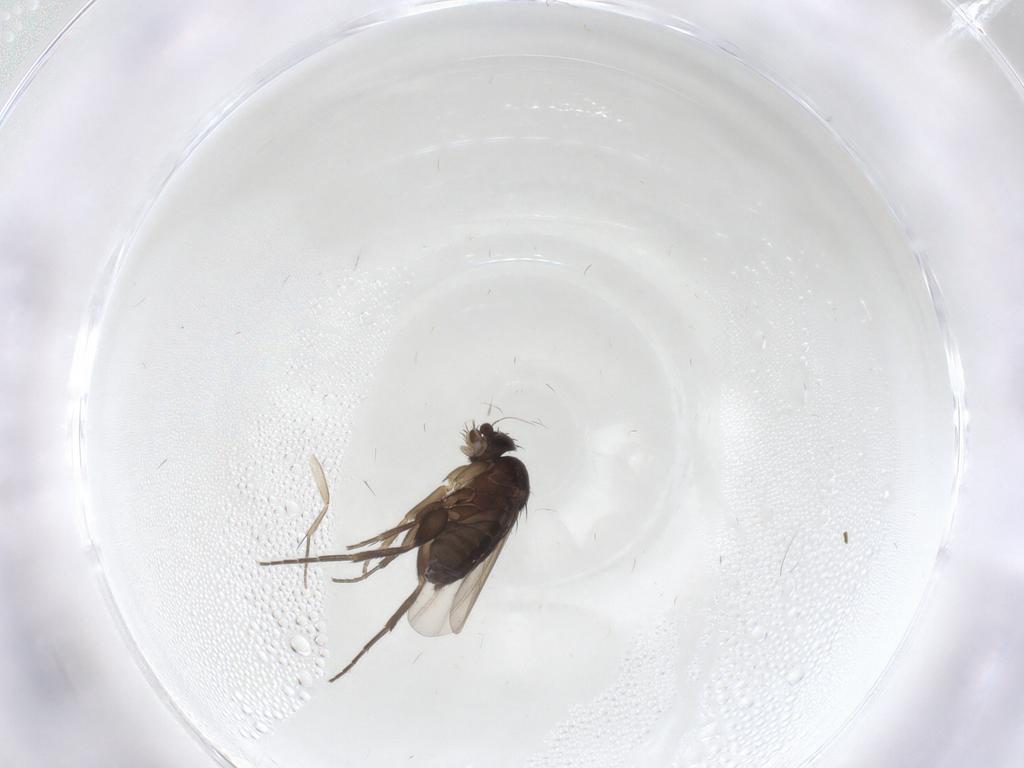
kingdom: Animalia
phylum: Arthropoda
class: Insecta
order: Diptera
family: Phoridae
